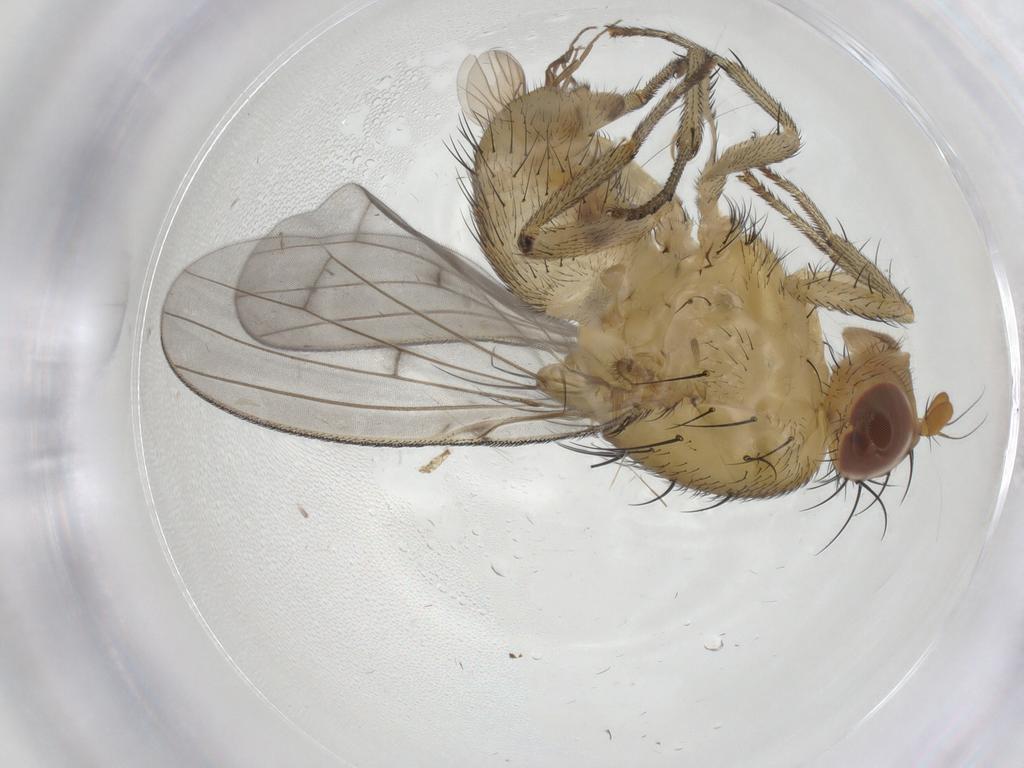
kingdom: Animalia
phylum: Arthropoda
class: Insecta
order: Diptera
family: Phoridae
